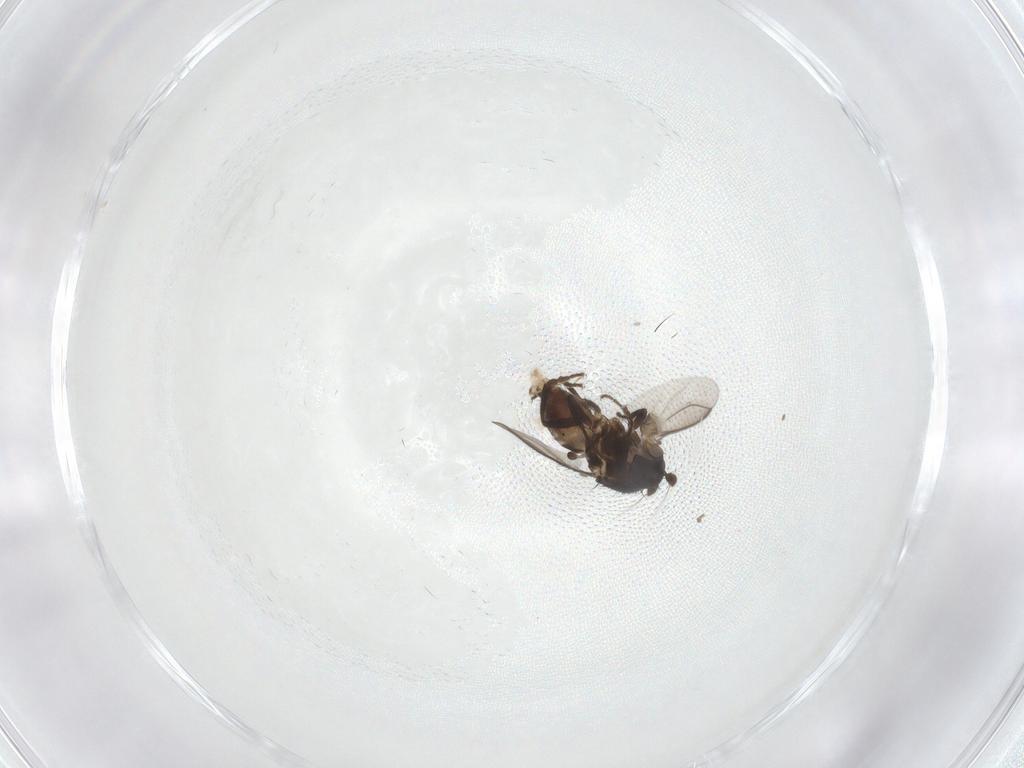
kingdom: Animalia
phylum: Arthropoda
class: Insecta
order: Diptera
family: Sphaeroceridae
